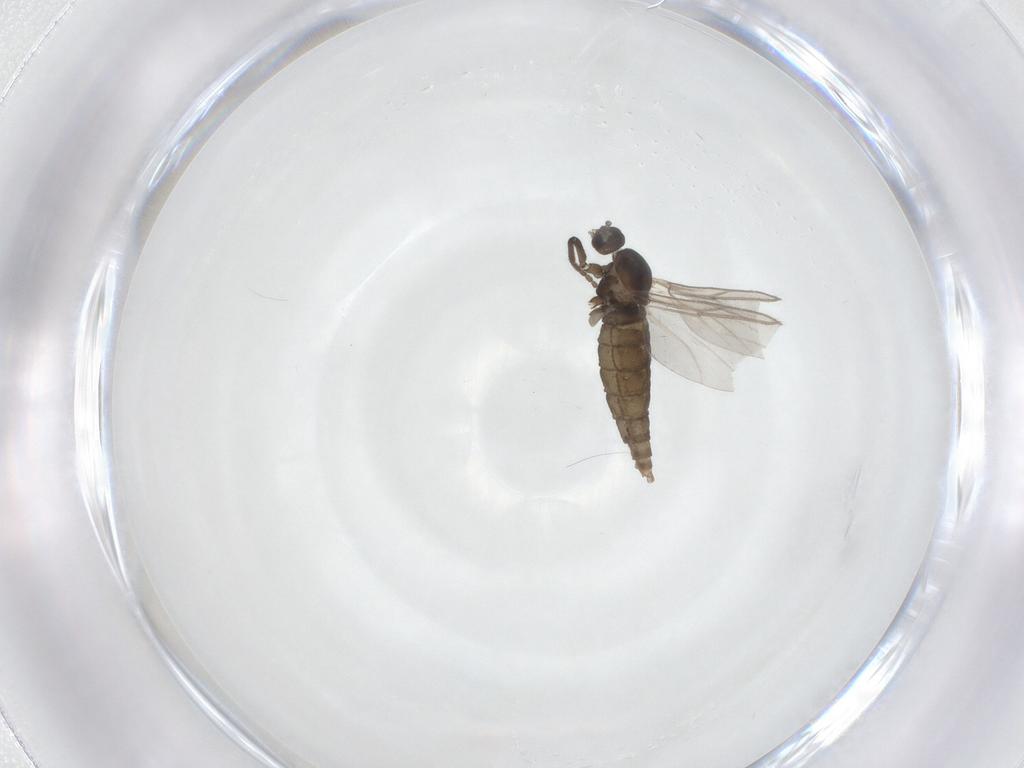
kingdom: Animalia
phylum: Arthropoda
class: Insecta
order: Diptera
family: Cecidomyiidae
